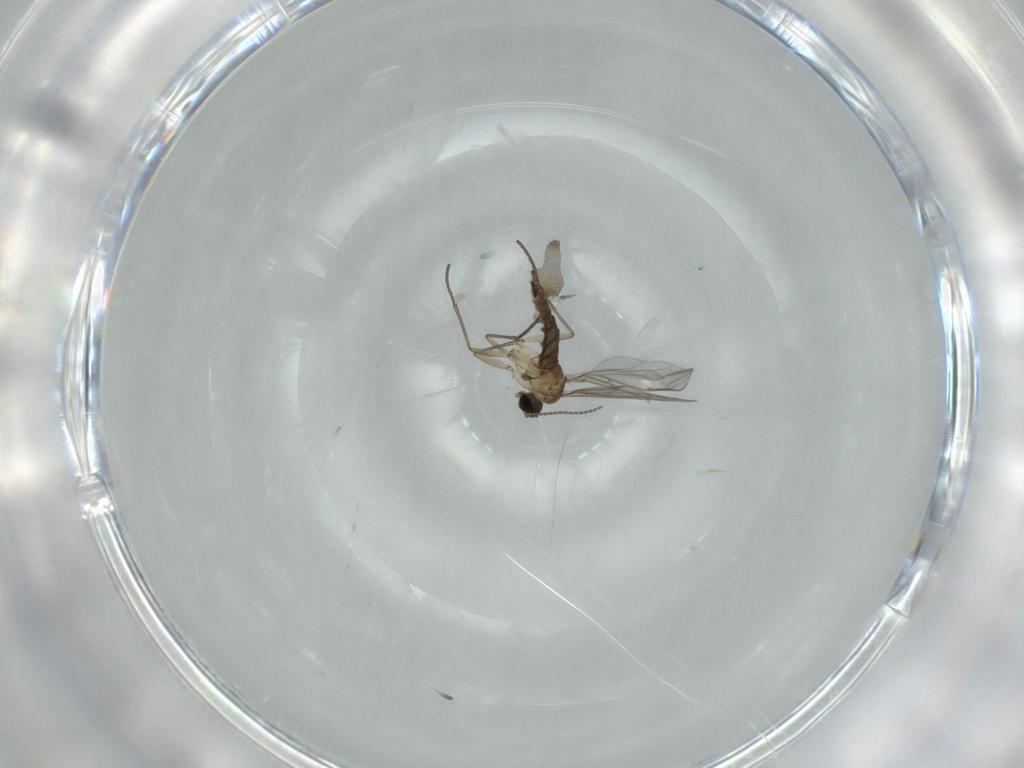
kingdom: Animalia
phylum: Arthropoda
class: Insecta
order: Diptera
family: Sciaridae
